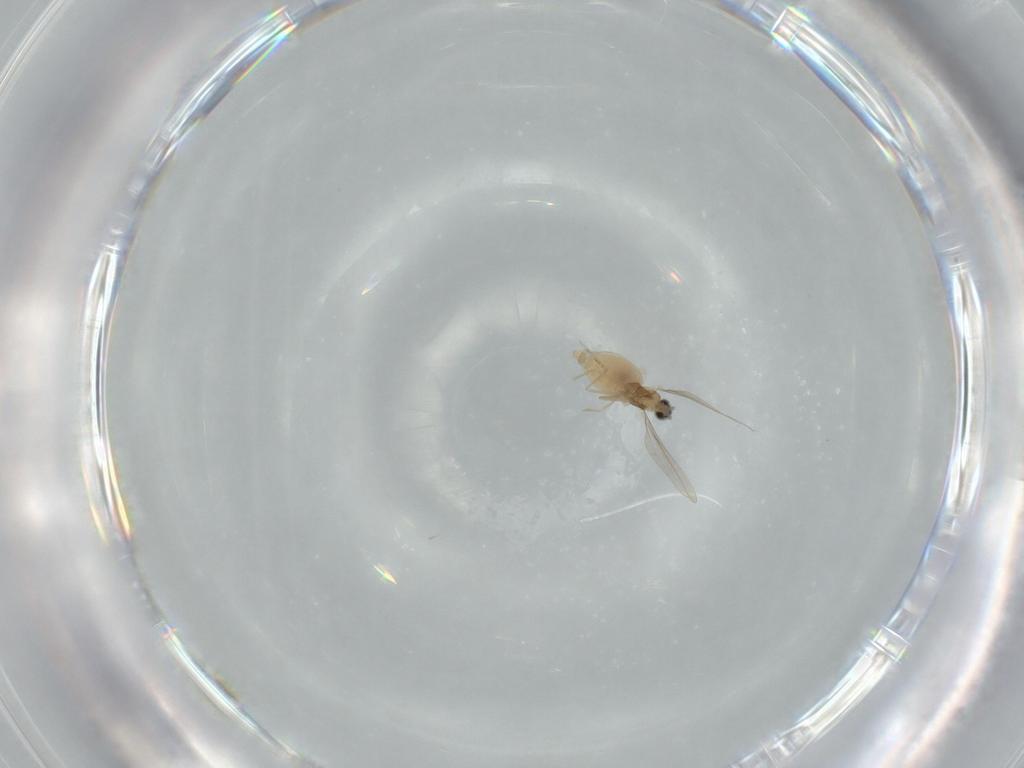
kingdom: Animalia
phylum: Arthropoda
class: Insecta
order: Diptera
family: Cecidomyiidae
